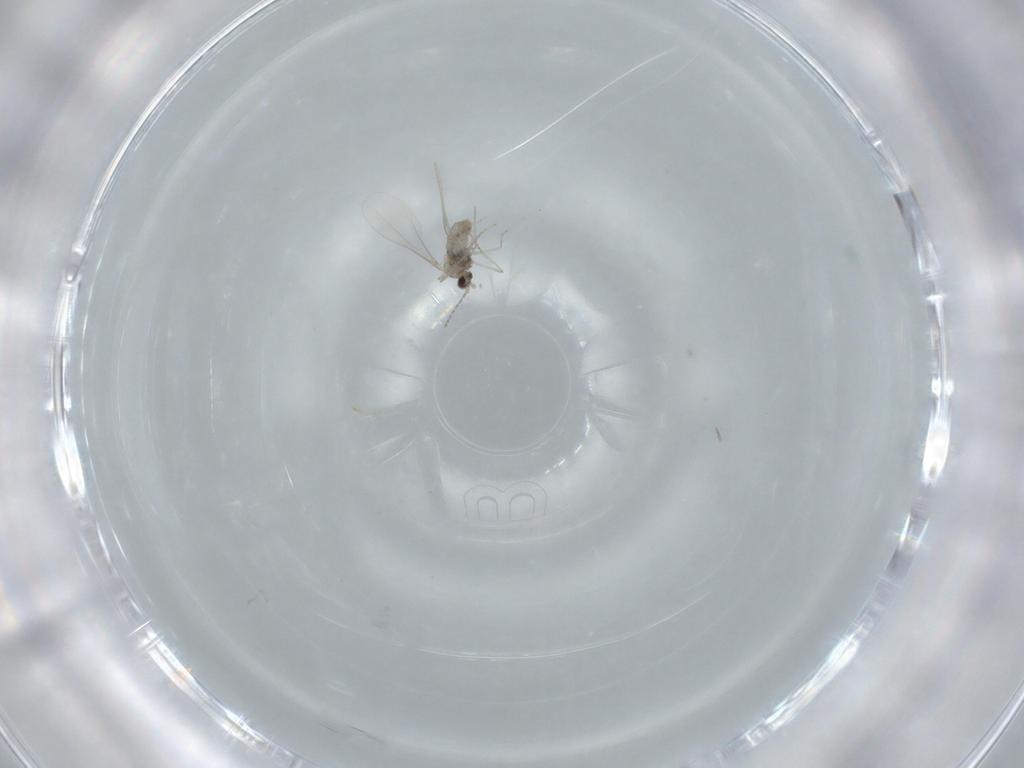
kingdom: Animalia
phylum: Arthropoda
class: Insecta
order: Diptera
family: Cecidomyiidae
